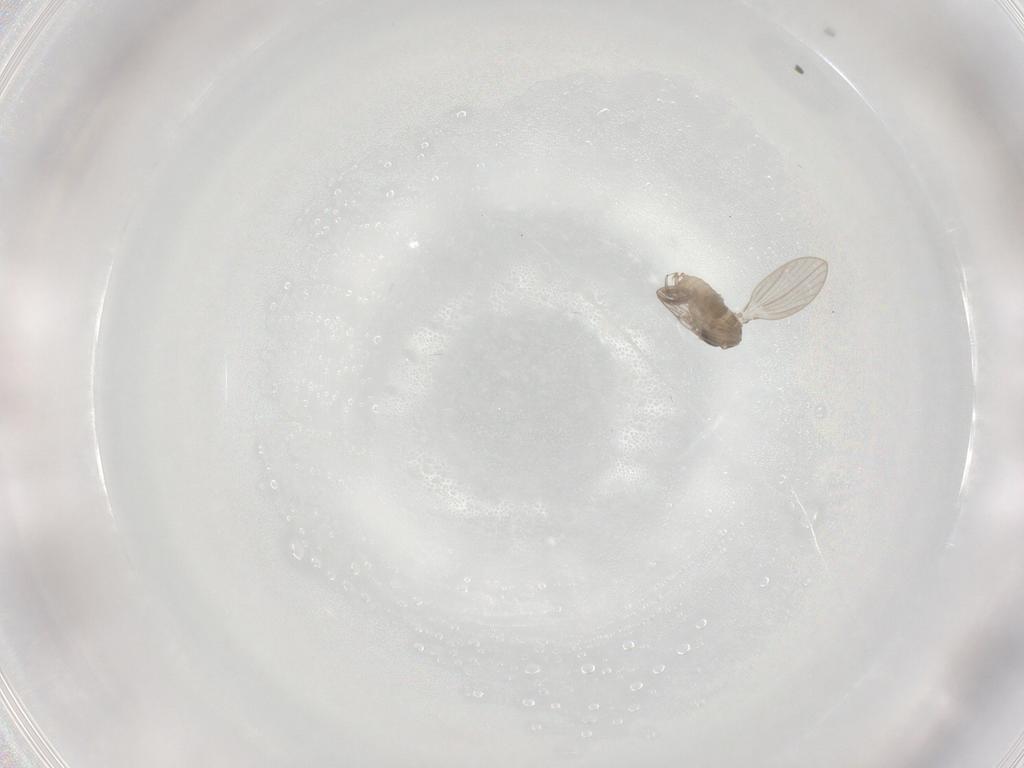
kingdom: Animalia
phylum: Arthropoda
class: Insecta
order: Diptera
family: Psychodidae
